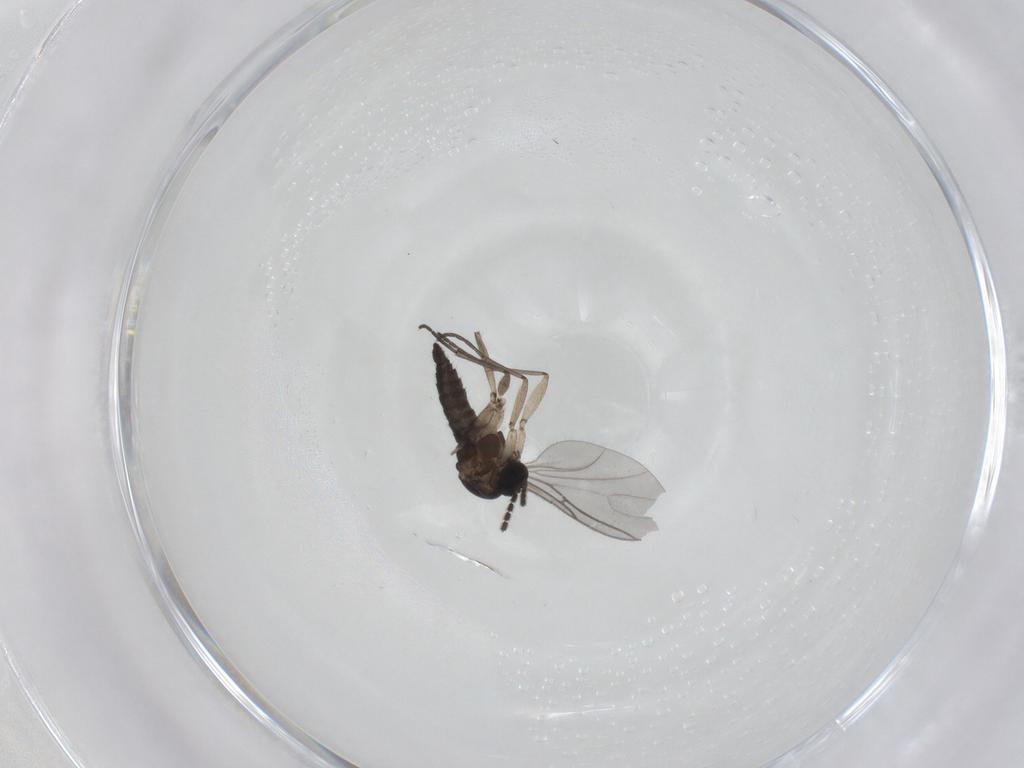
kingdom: Animalia
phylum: Arthropoda
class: Insecta
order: Diptera
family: Sciaridae
